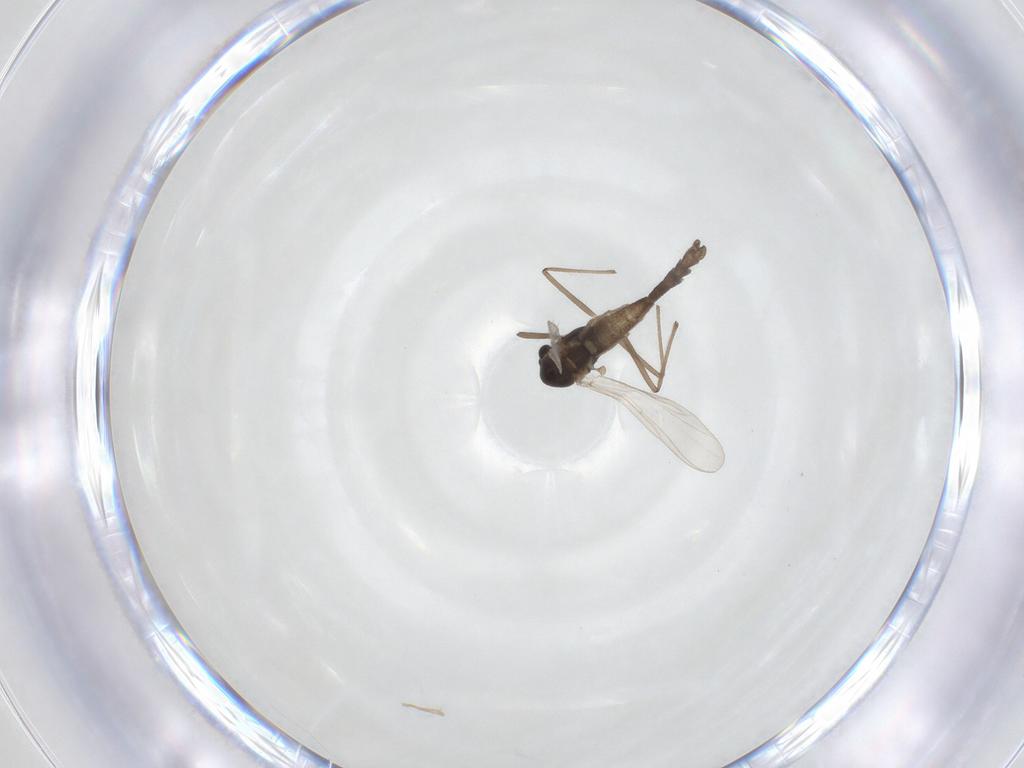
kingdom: Animalia
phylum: Arthropoda
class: Insecta
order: Diptera
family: Chironomidae
